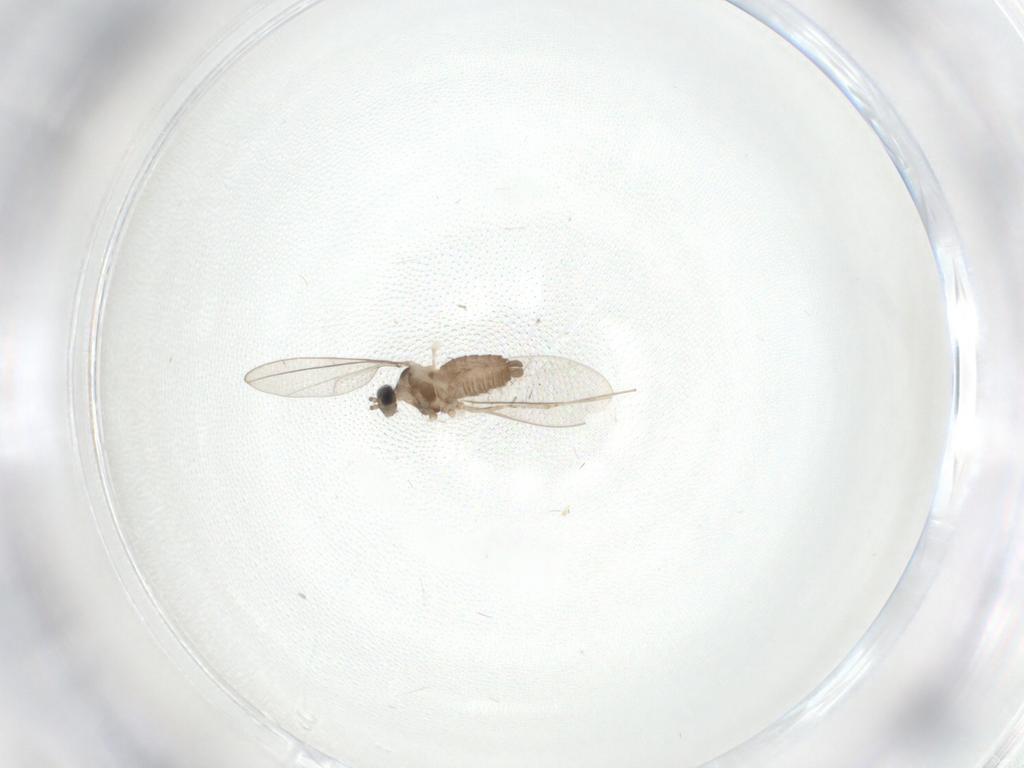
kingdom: Animalia
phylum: Arthropoda
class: Insecta
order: Diptera
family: Cecidomyiidae
